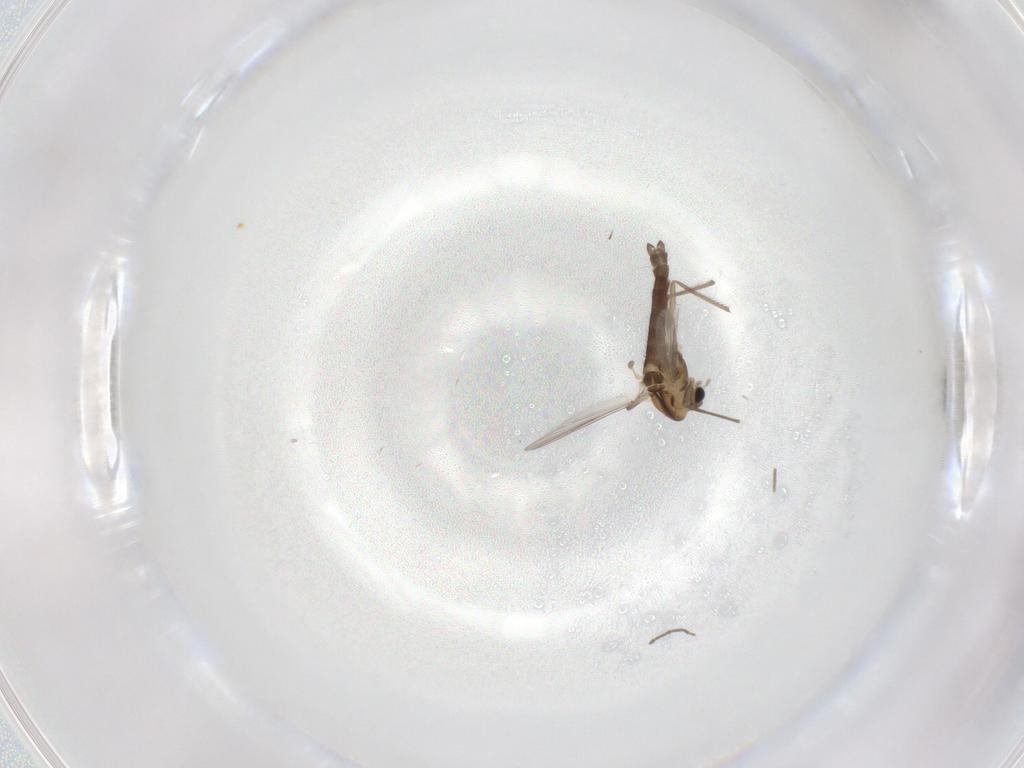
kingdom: Animalia
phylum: Arthropoda
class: Insecta
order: Diptera
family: Chironomidae
